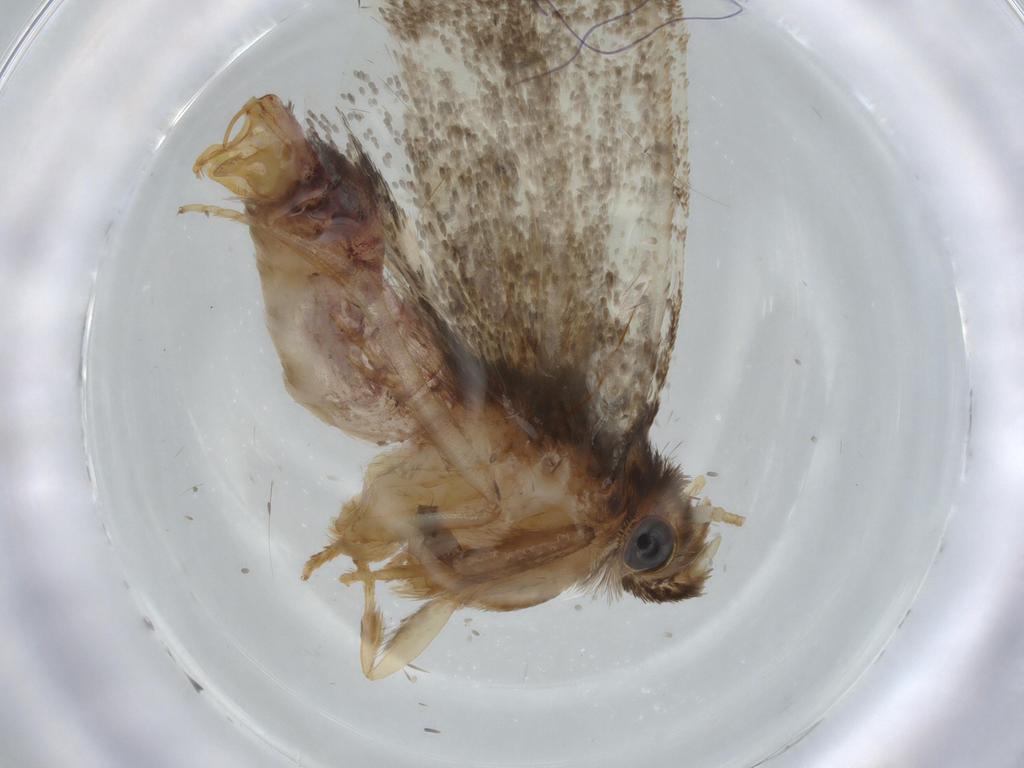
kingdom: Animalia
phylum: Arthropoda
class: Insecta
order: Lepidoptera
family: Tineidae
